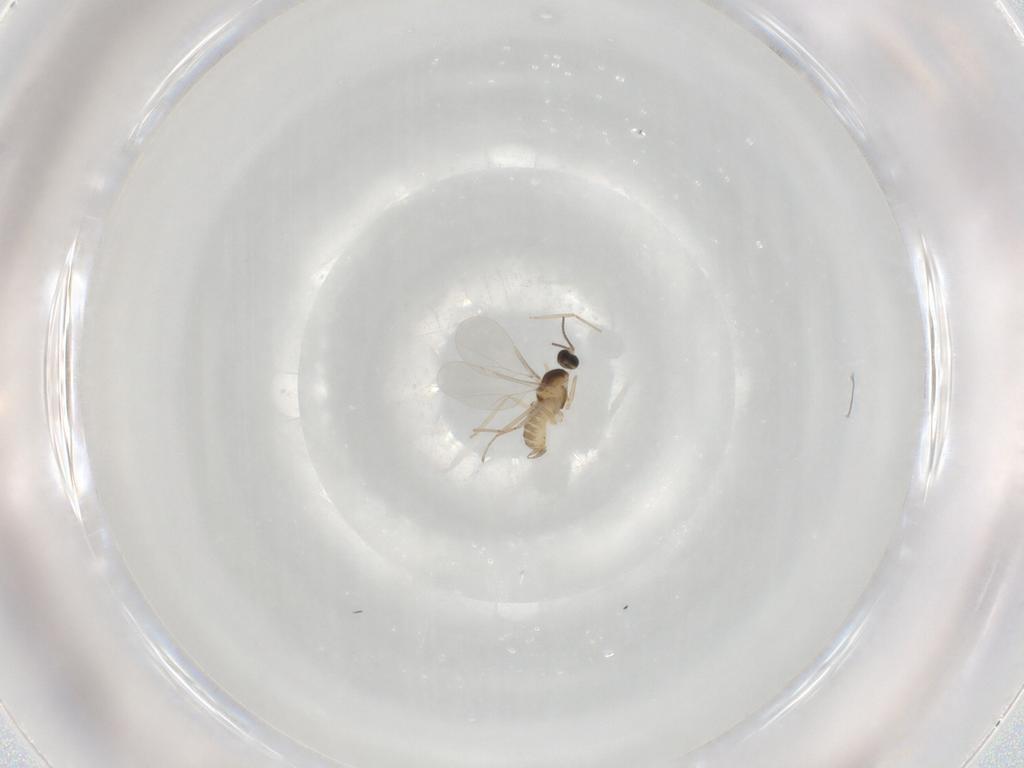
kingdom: Animalia
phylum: Arthropoda
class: Insecta
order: Diptera
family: Cecidomyiidae
